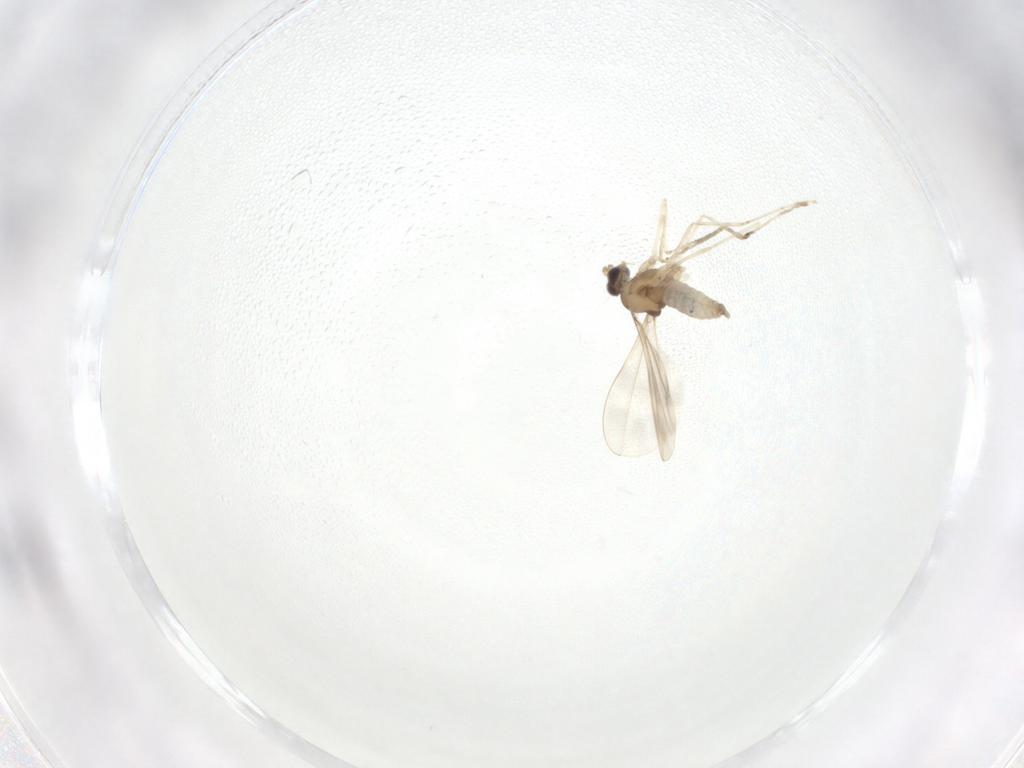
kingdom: Animalia
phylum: Arthropoda
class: Insecta
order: Diptera
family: Cecidomyiidae
